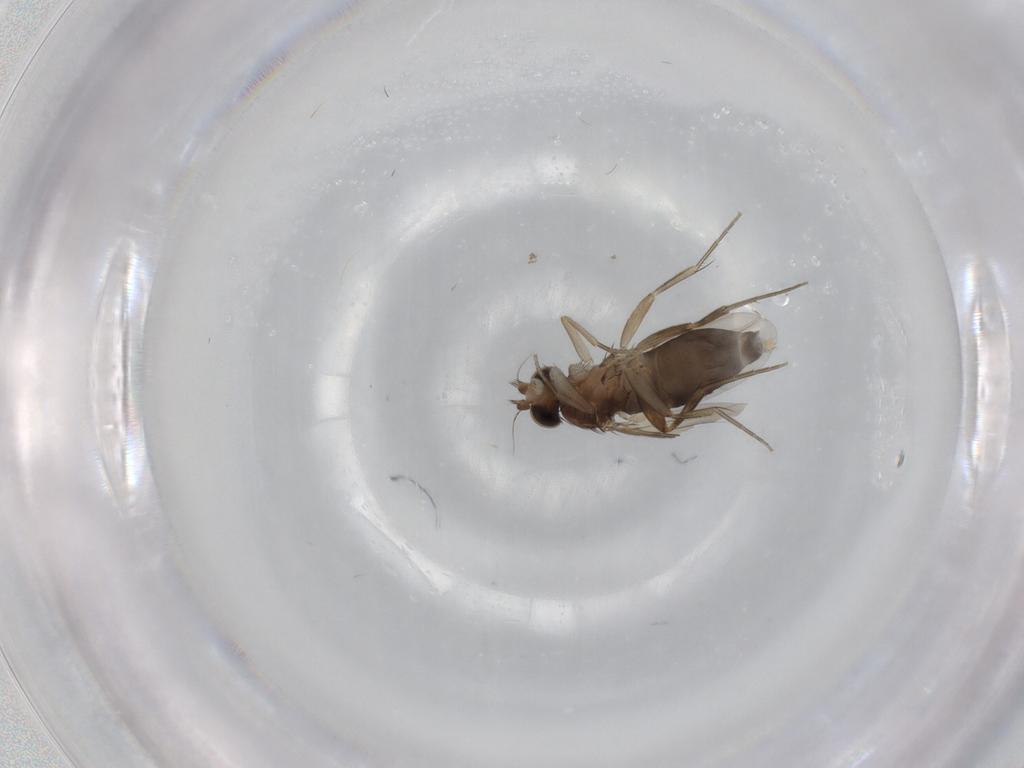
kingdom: Animalia
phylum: Arthropoda
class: Insecta
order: Diptera
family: Phoridae
